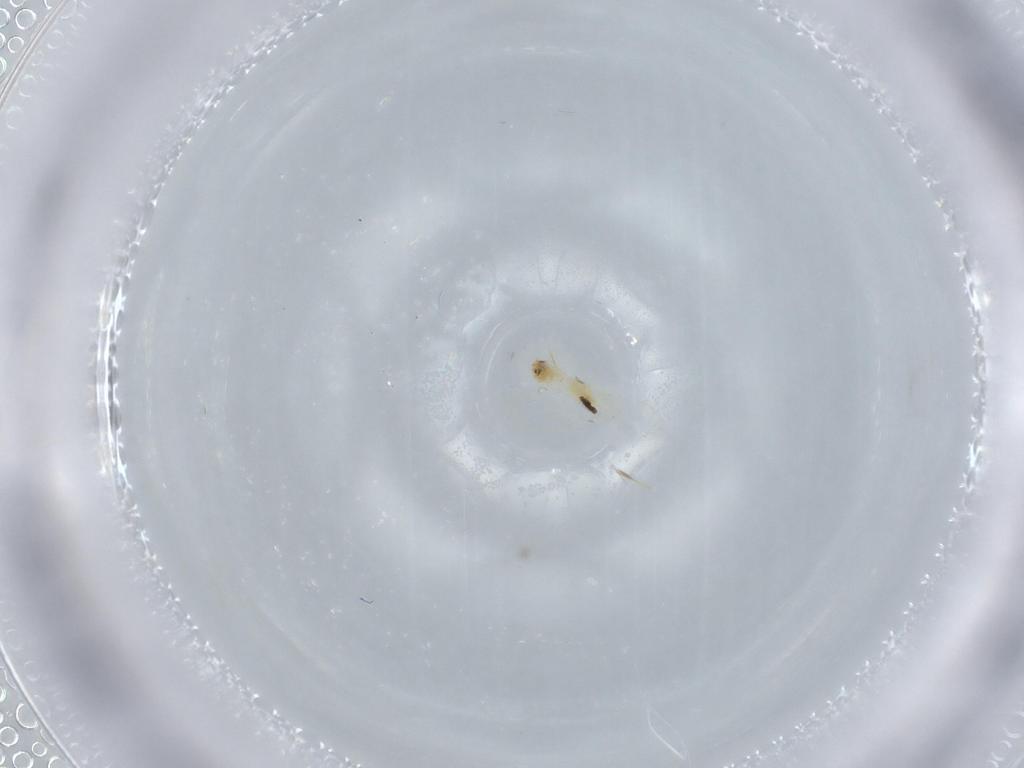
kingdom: Animalia
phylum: Arthropoda
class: Insecta
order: Hemiptera
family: Aleyrodidae
